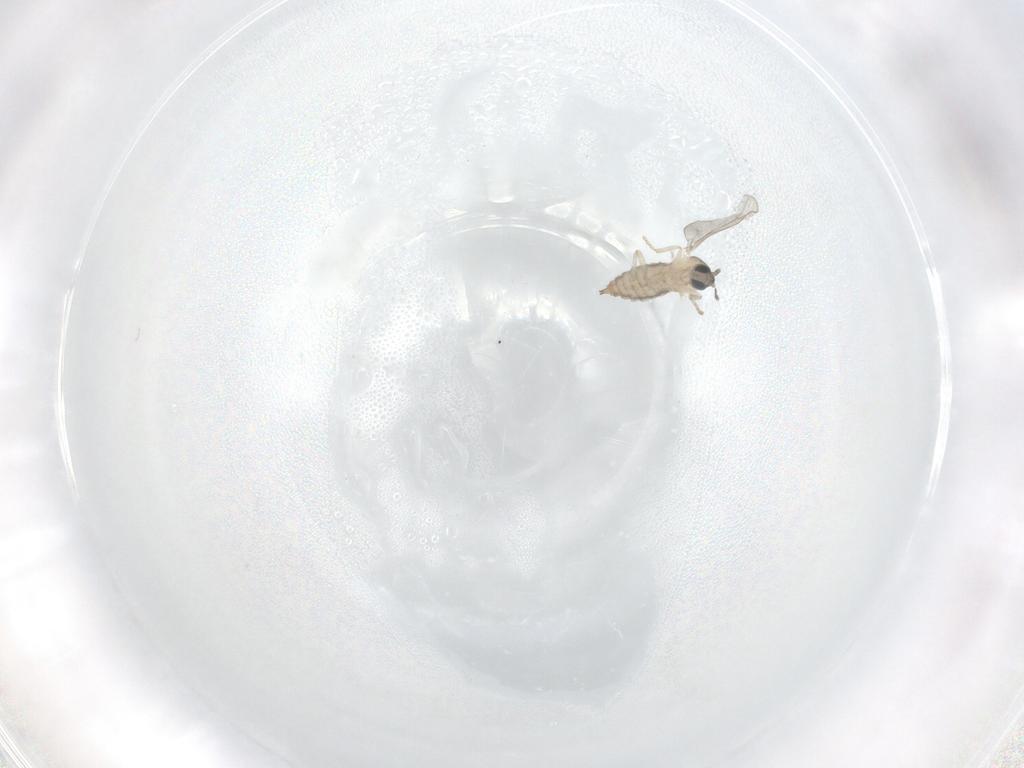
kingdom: Animalia
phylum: Arthropoda
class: Insecta
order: Diptera
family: Cecidomyiidae
